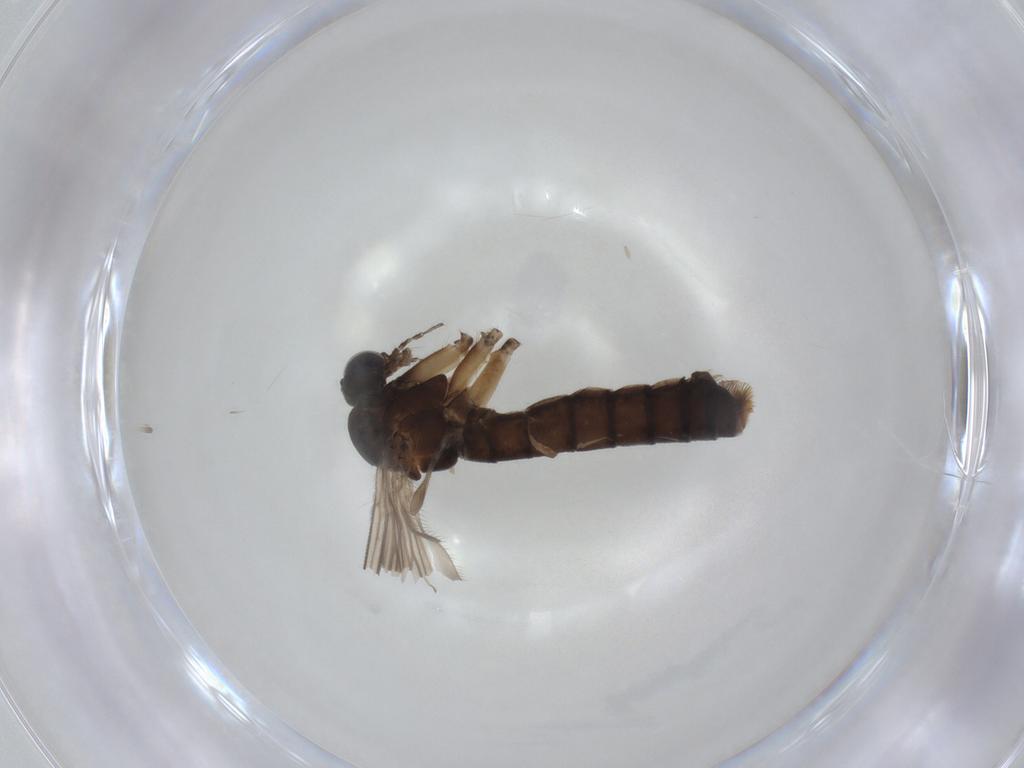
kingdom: Animalia
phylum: Arthropoda
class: Insecta
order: Diptera
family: Sciaroidea_incertae_sedis
